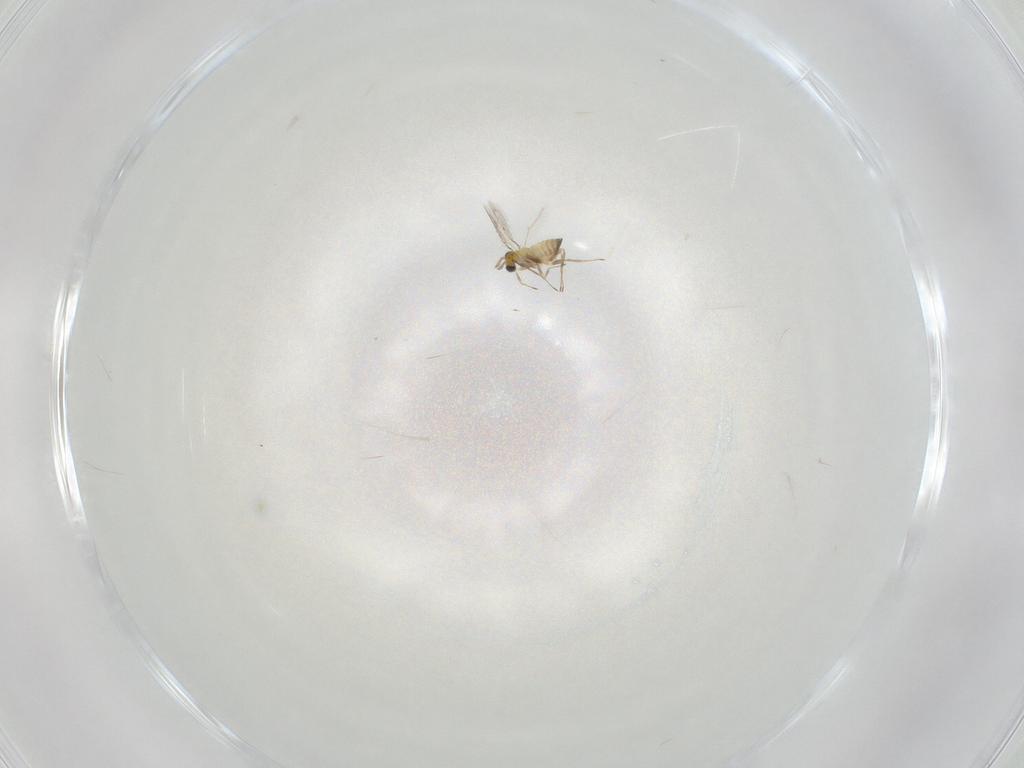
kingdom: Animalia
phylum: Arthropoda
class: Insecta
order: Hymenoptera
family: Trichogrammatidae
